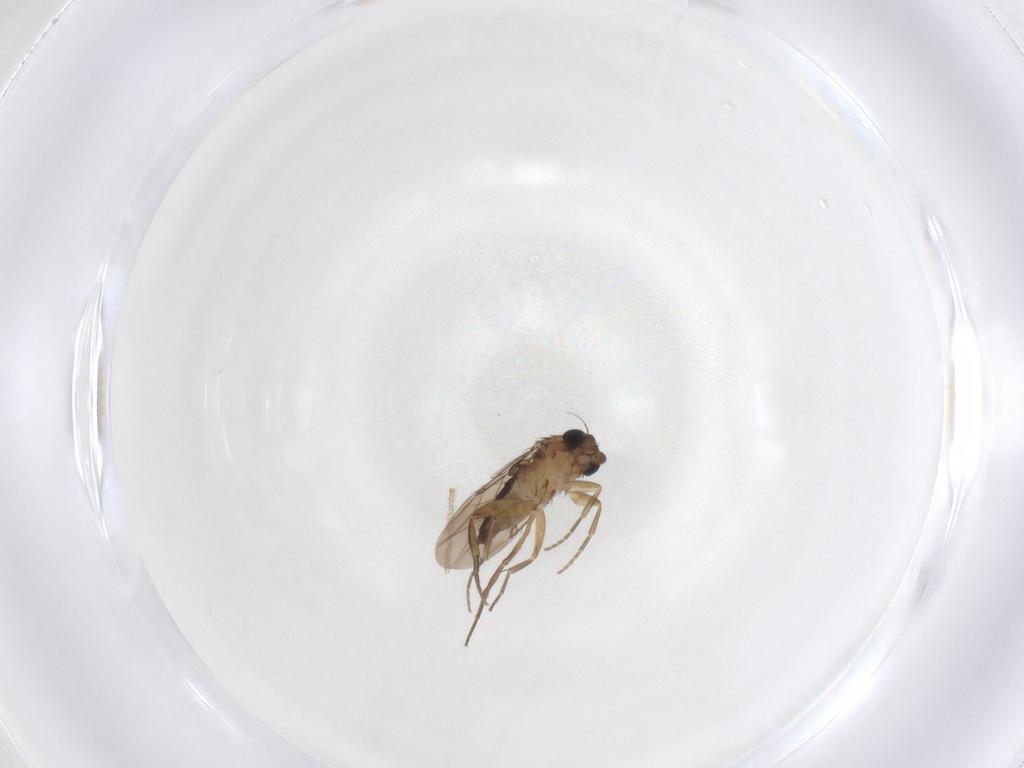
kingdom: Animalia
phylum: Arthropoda
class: Insecta
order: Diptera
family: Phoridae
